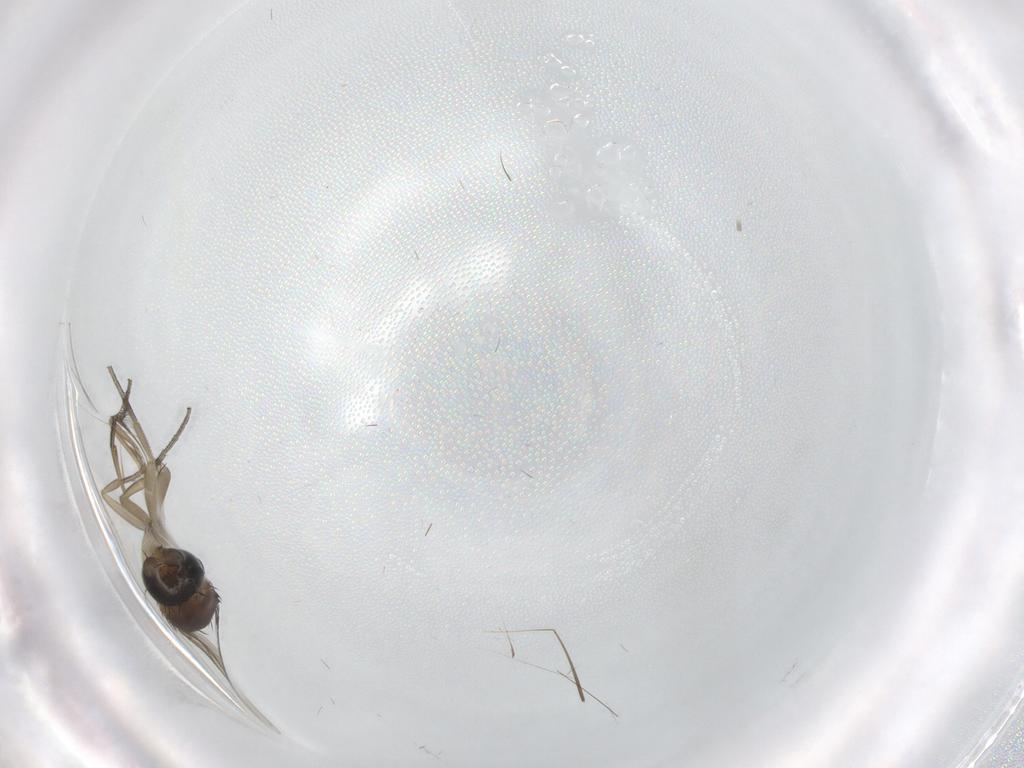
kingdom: Animalia
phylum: Arthropoda
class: Insecta
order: Diptera
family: Phoridae
